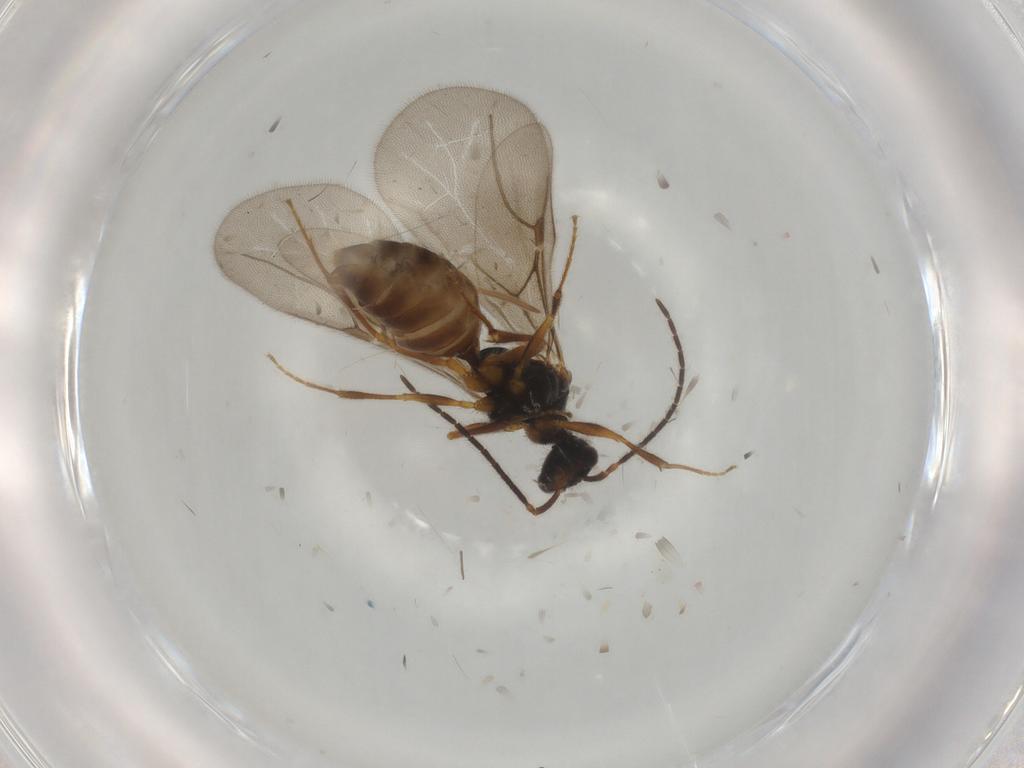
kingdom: Animalia
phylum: Arthropoda
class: Insecta
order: Hymenoptera
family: Bethylidae
